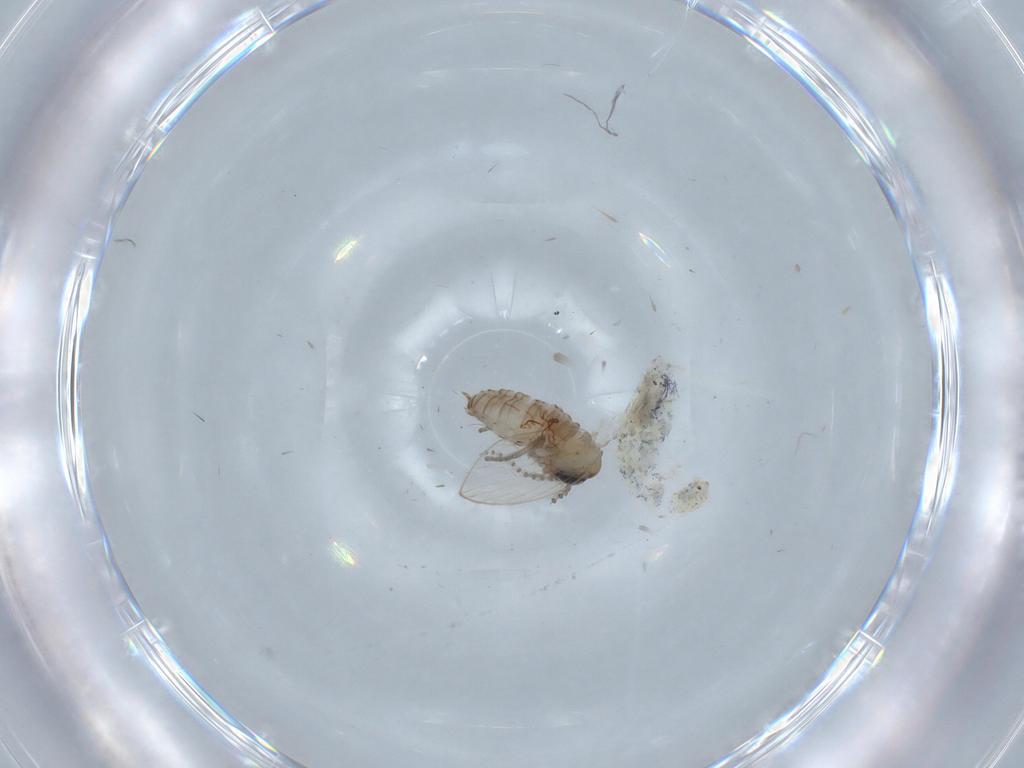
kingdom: Animalia
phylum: Arthropoda
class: Insecta
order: Diptera
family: Psychodidae
